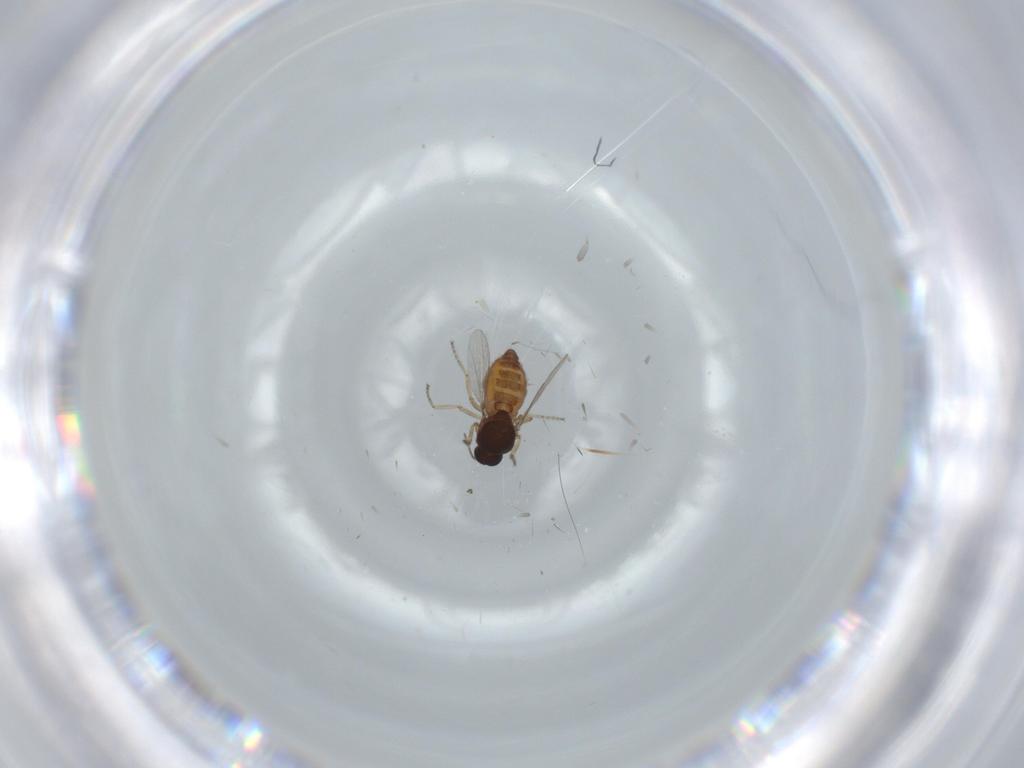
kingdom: Animalia
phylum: Arthropoda
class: Insecta
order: Diptera
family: Ceratopogonidae
